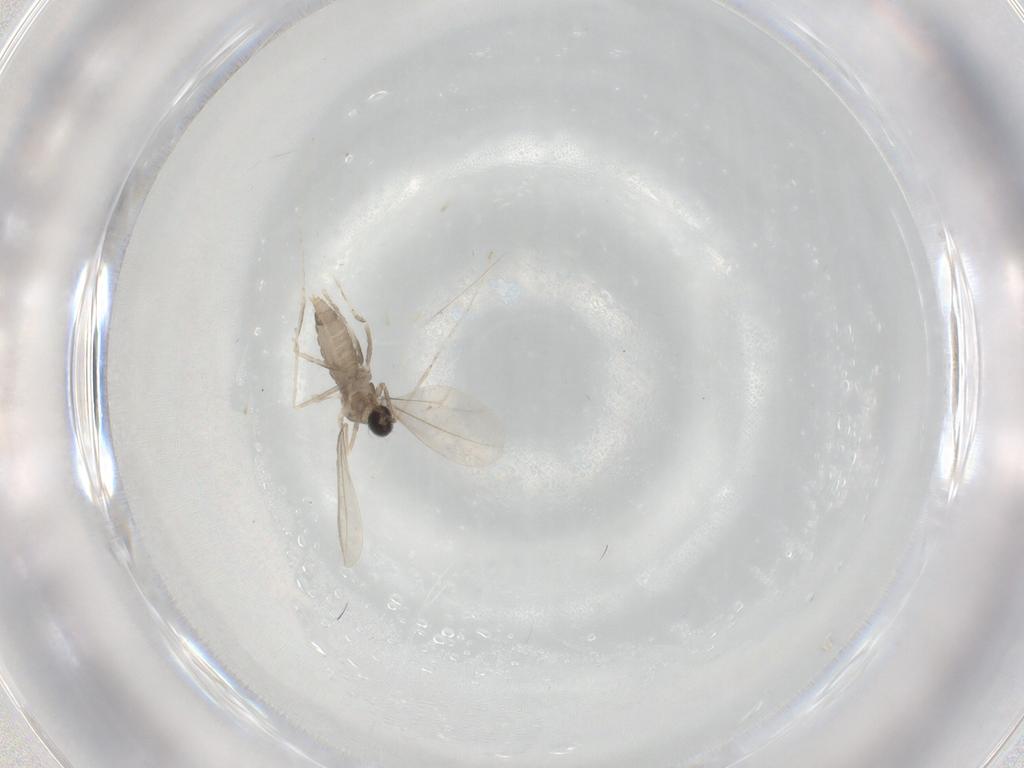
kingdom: Animalia
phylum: Arthropoda
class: Insecta
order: Diptera
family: Cecidomyiidae
